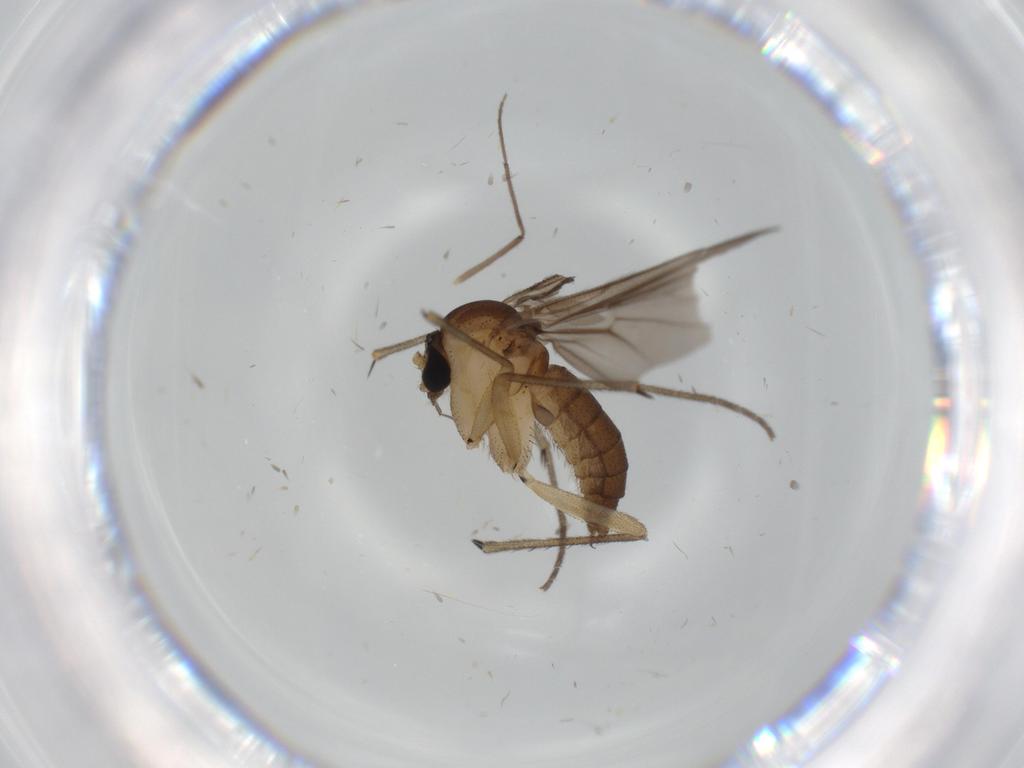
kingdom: Animalia
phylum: Arthropoda
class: Insecta
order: Diptera
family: Milichiidae
